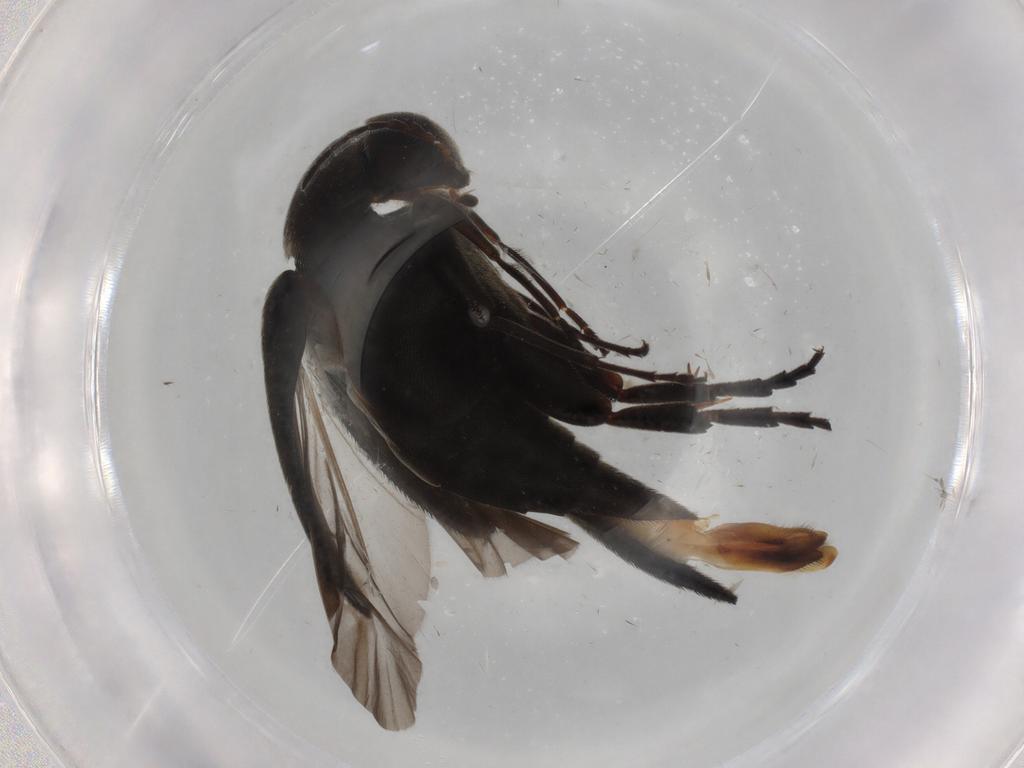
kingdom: Animalia
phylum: Arthropoda
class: Insecta
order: Coleoptera
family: Mordellidae
